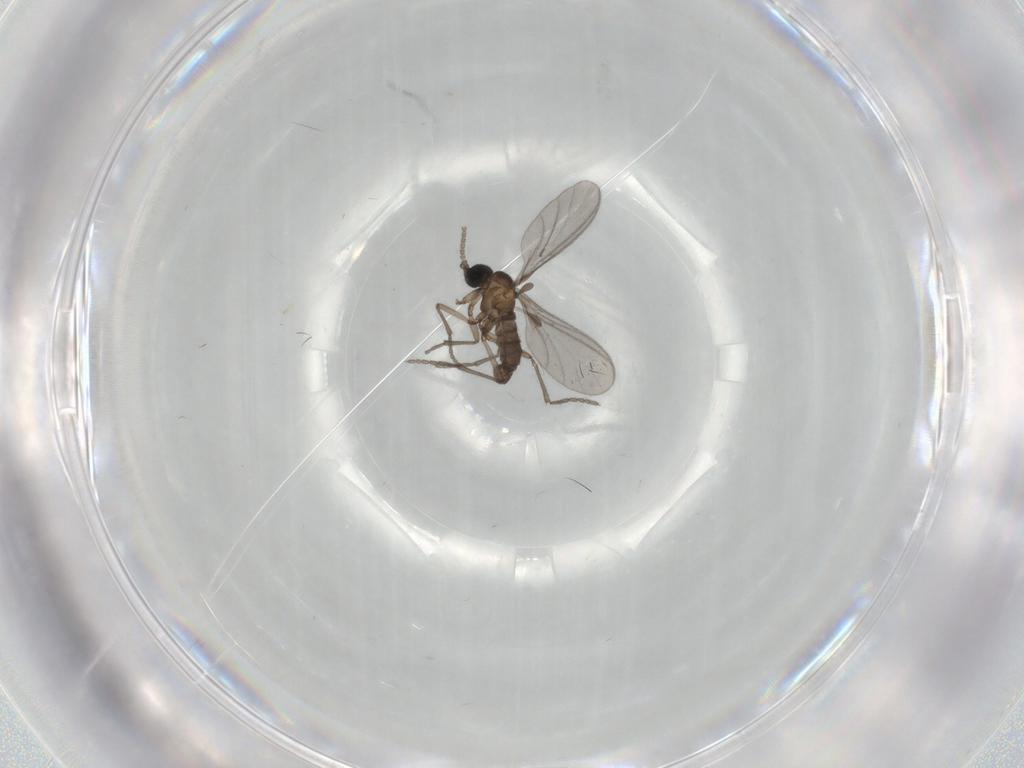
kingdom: Animalia
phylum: Arthropoda
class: Insecta
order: Diptera
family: Sciaridae
